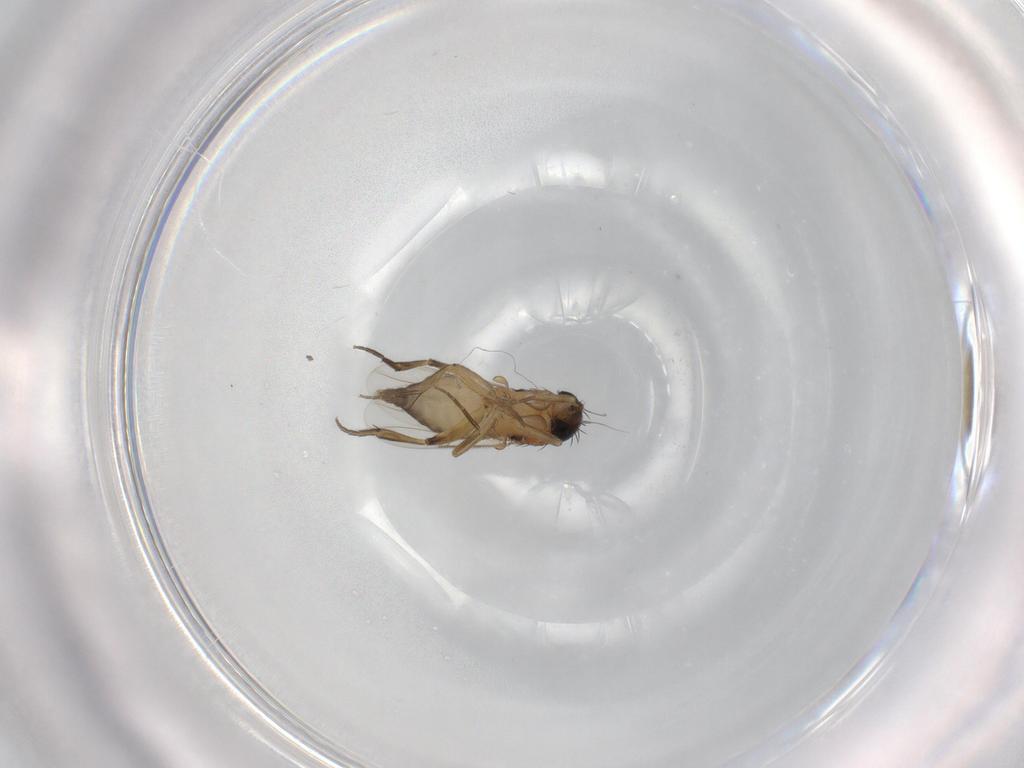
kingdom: Animalia
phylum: Arthropoda
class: Insecta
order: Diptera
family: Phoridae
